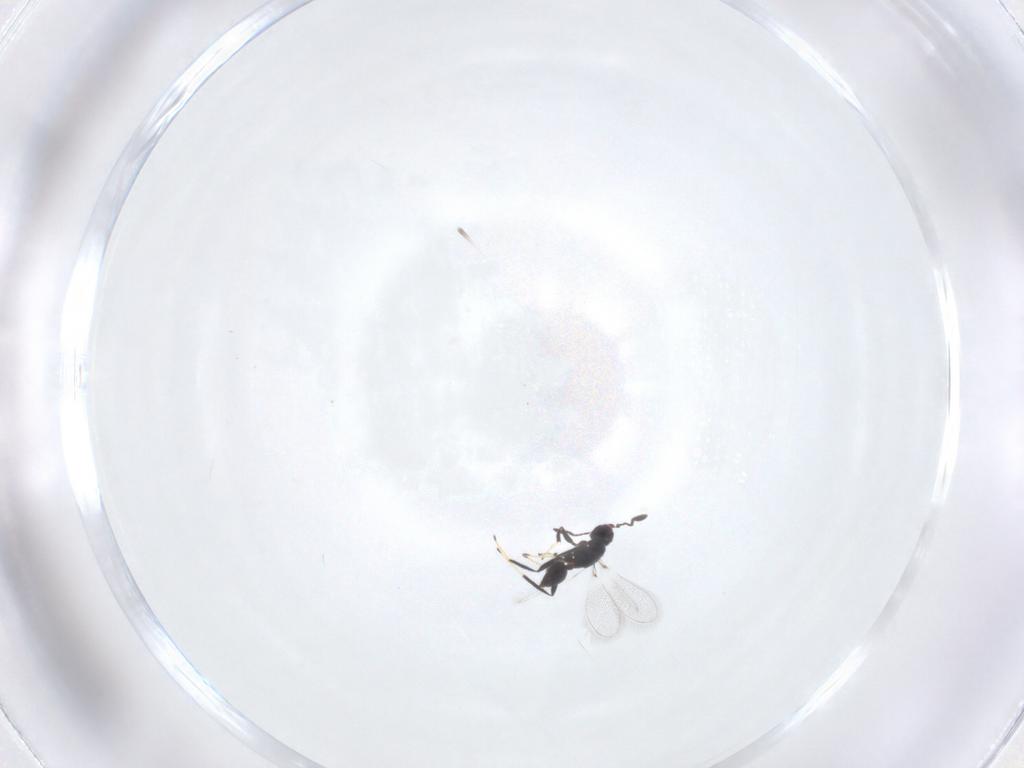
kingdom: Animalia
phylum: Arthropoda
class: Insecta
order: Hymenoptera
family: Mymaridae
